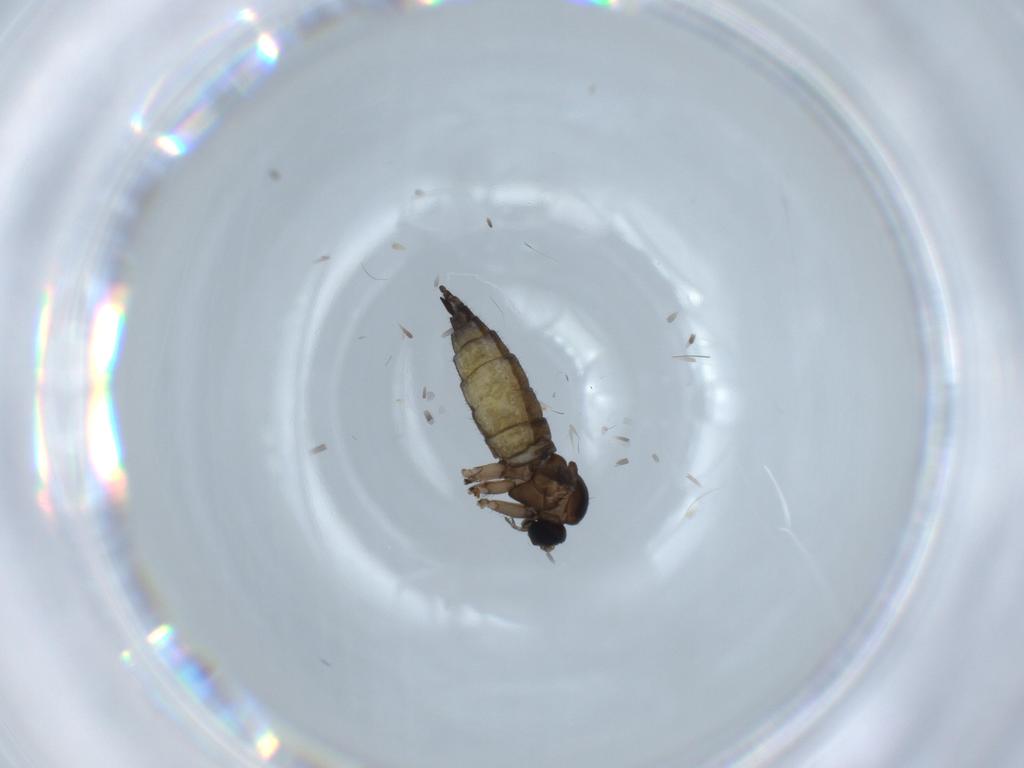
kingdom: Animalia
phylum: Arthropoda
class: Insecta
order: Diptera
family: Sciaridae
